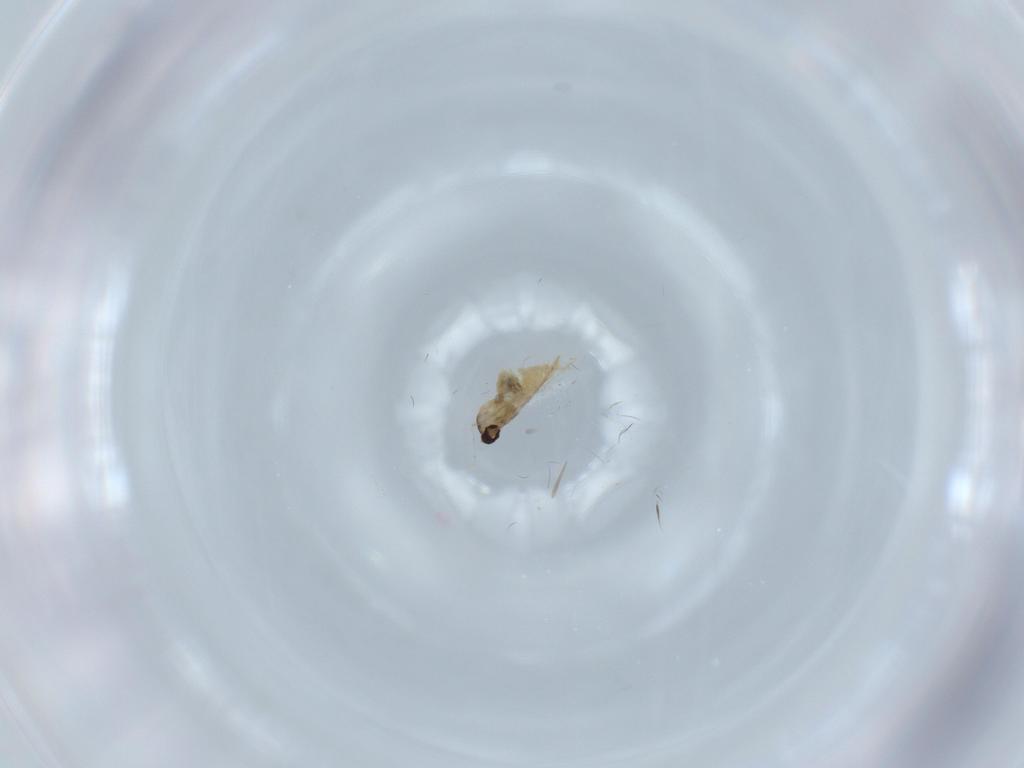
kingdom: Animalia
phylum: Arthropoda
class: Insecta
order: Diptera
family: Cecidomyiidae
